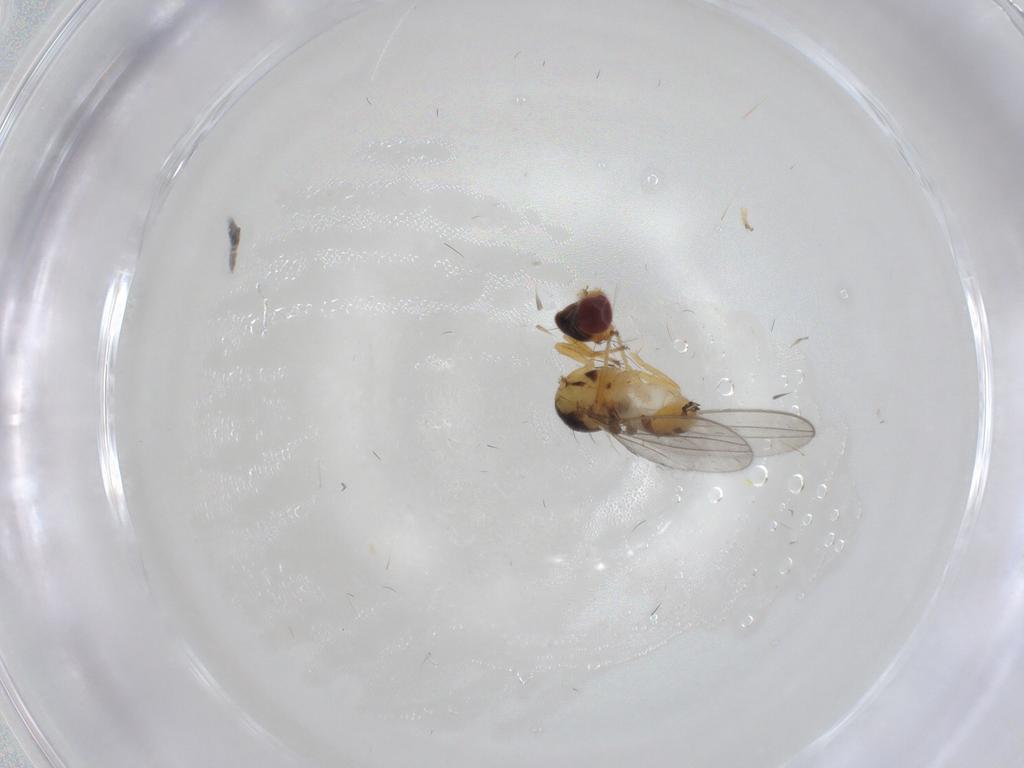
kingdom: Animalia
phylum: Arthropoda
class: Insecta
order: Diptera
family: Asteiidae
